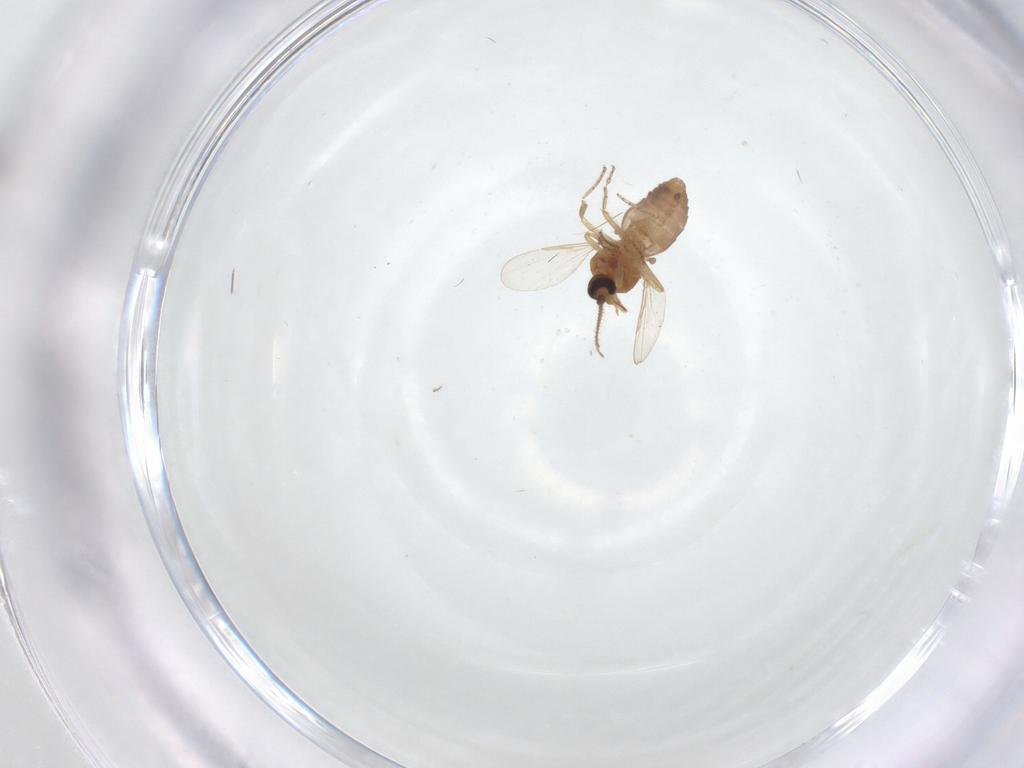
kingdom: Animalia
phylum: Arthropoda
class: Insecta
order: Diptera
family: Ceratopogonidae
